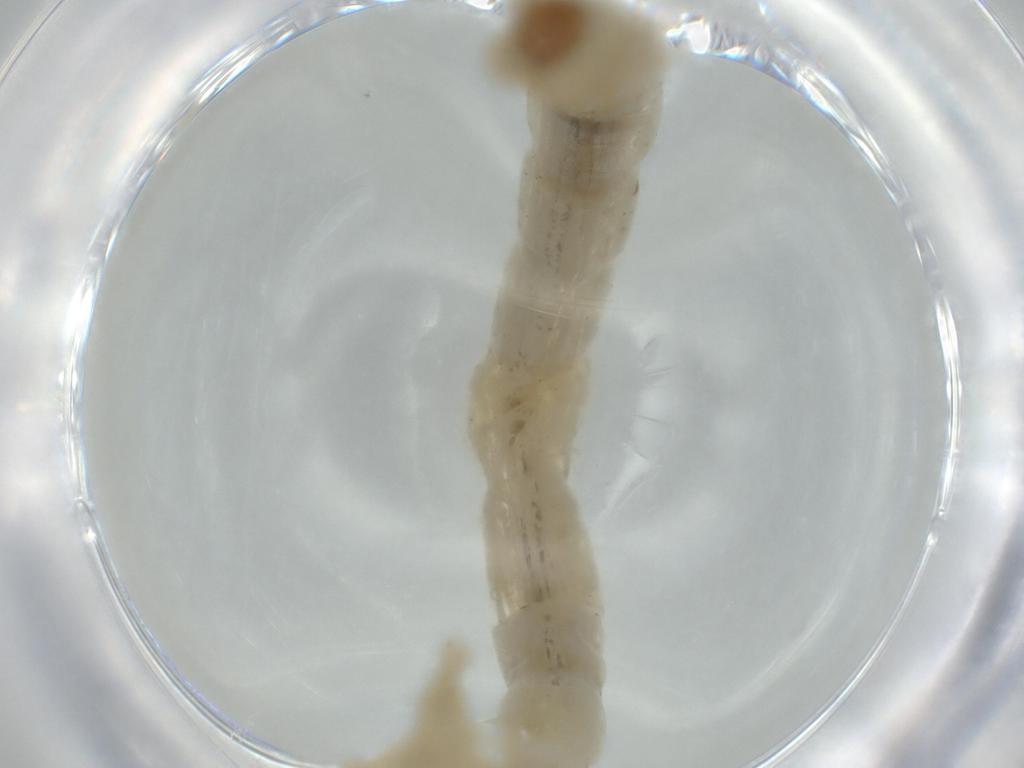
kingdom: Animalia
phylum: Arthropoda
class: Insecta
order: Diptera
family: Chironomidae
